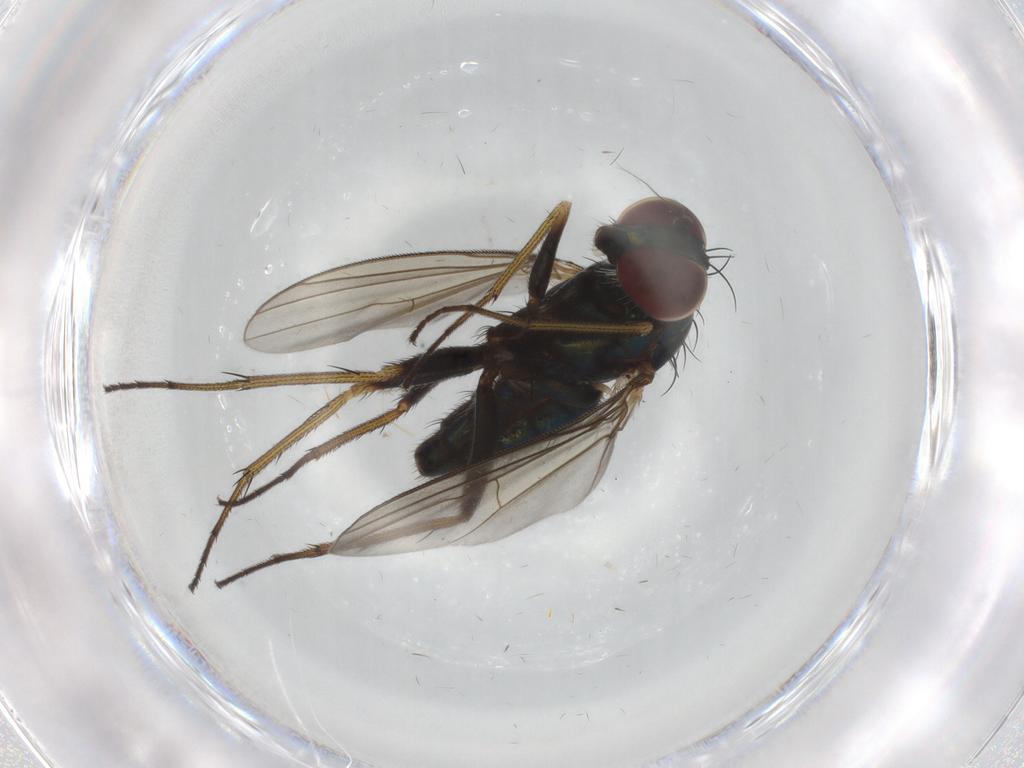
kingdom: Animalia
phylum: Arthropoda
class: Insecta
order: Diptera
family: Dolichopodidae
